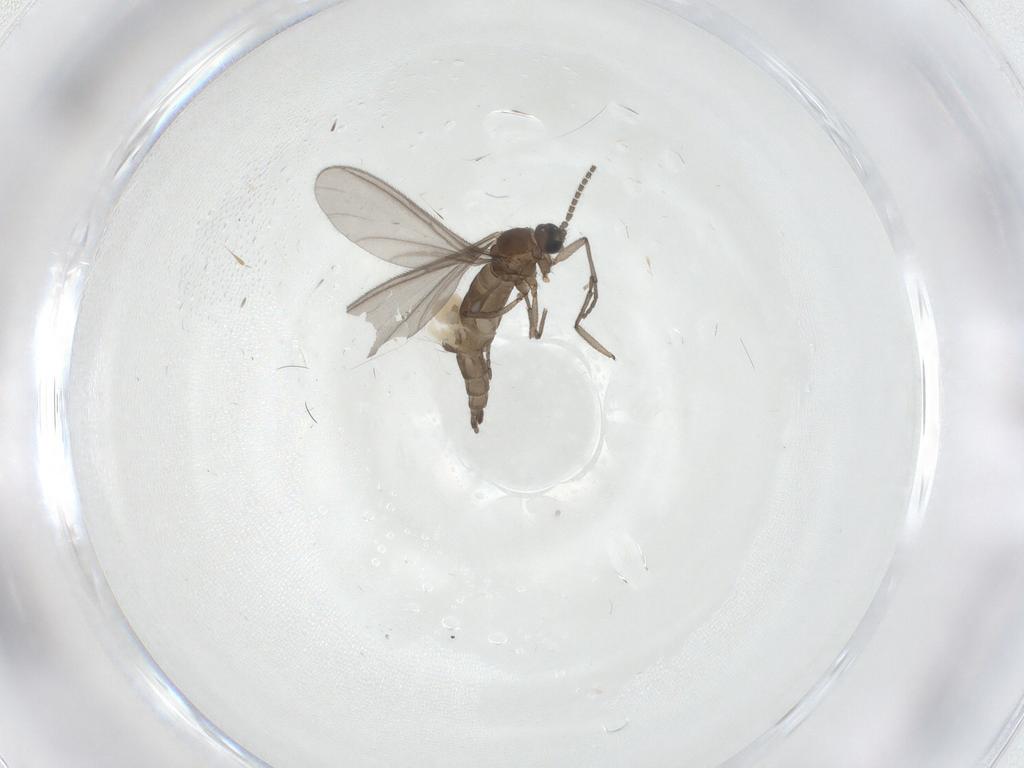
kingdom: Animalia
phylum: Arthropoda
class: Insecta
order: Diptera
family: Sciaridae
